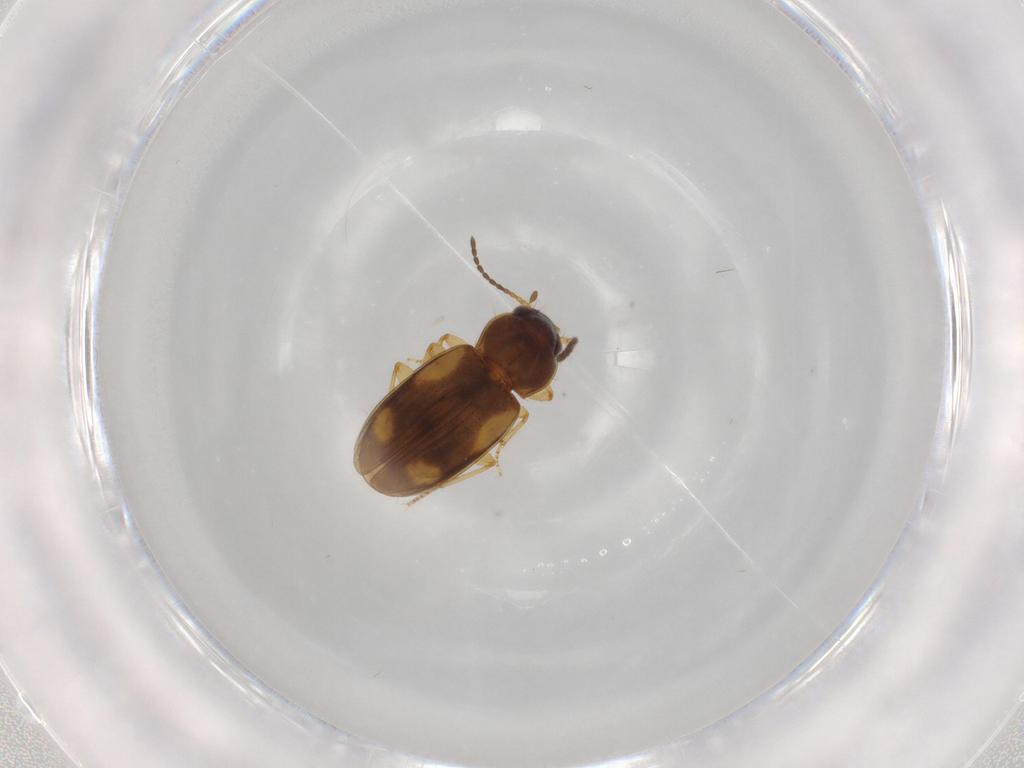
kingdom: Animalia
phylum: Arthropoda
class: Insecta
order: Coleoptera
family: Carabidae
